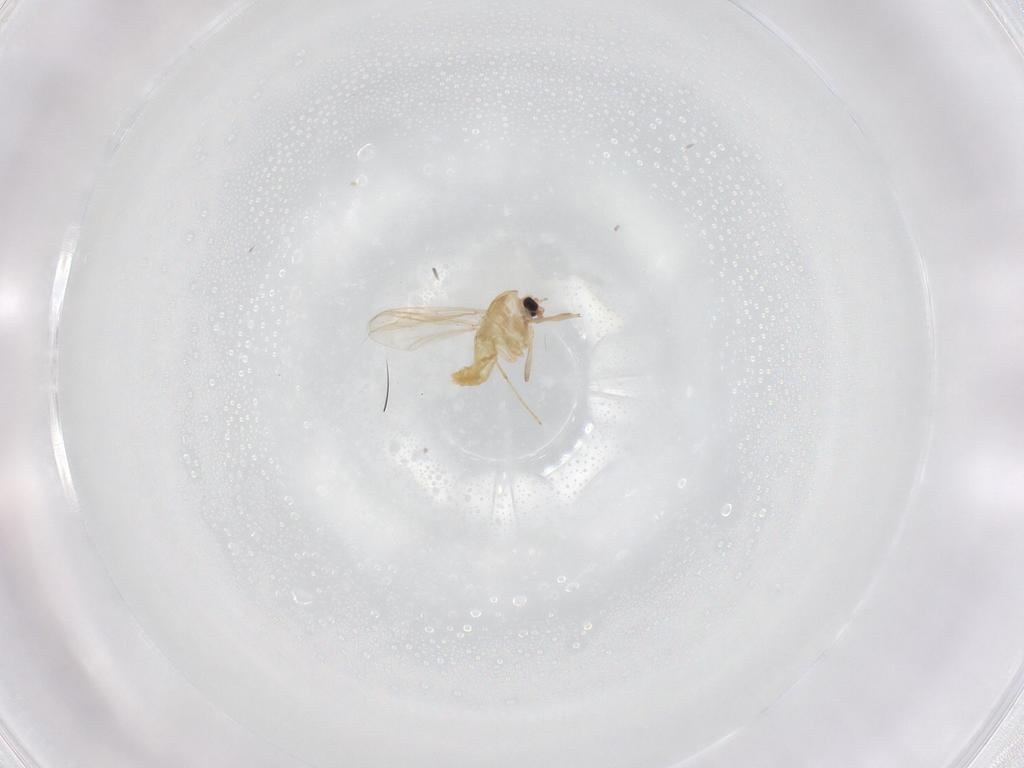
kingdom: Animalia
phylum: Arthropoda
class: Insecta
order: Diptera
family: Chironomidae
